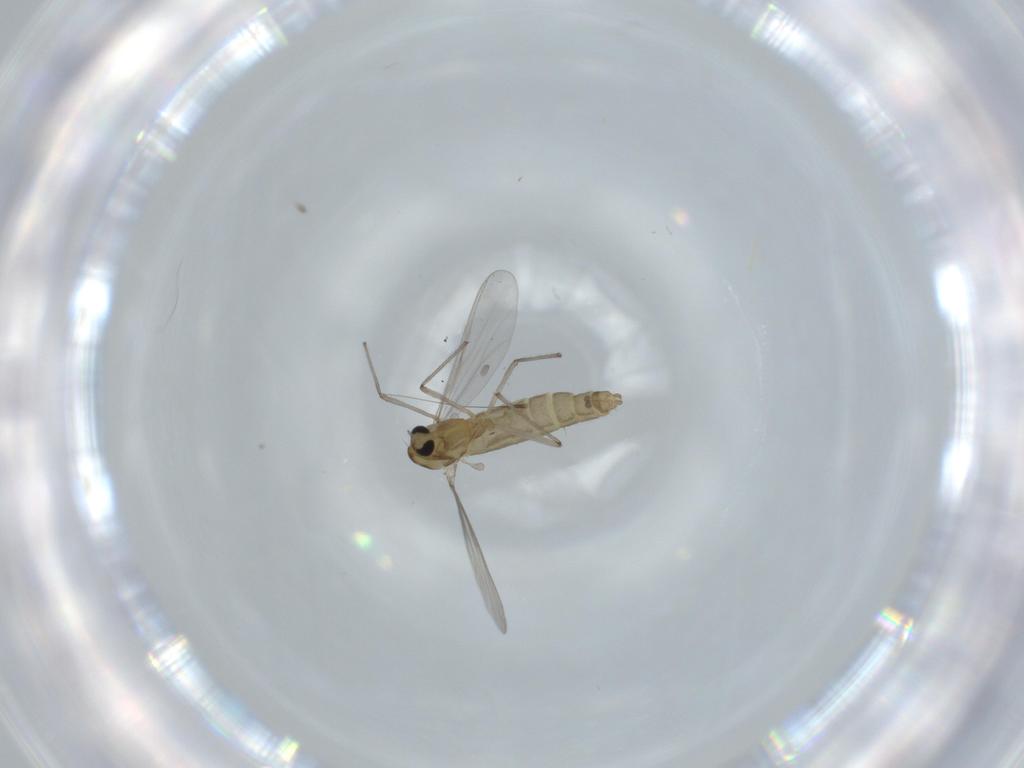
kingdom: Animalia
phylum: Arthropoda
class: Insecta
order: Diptera
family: Chironomidae
